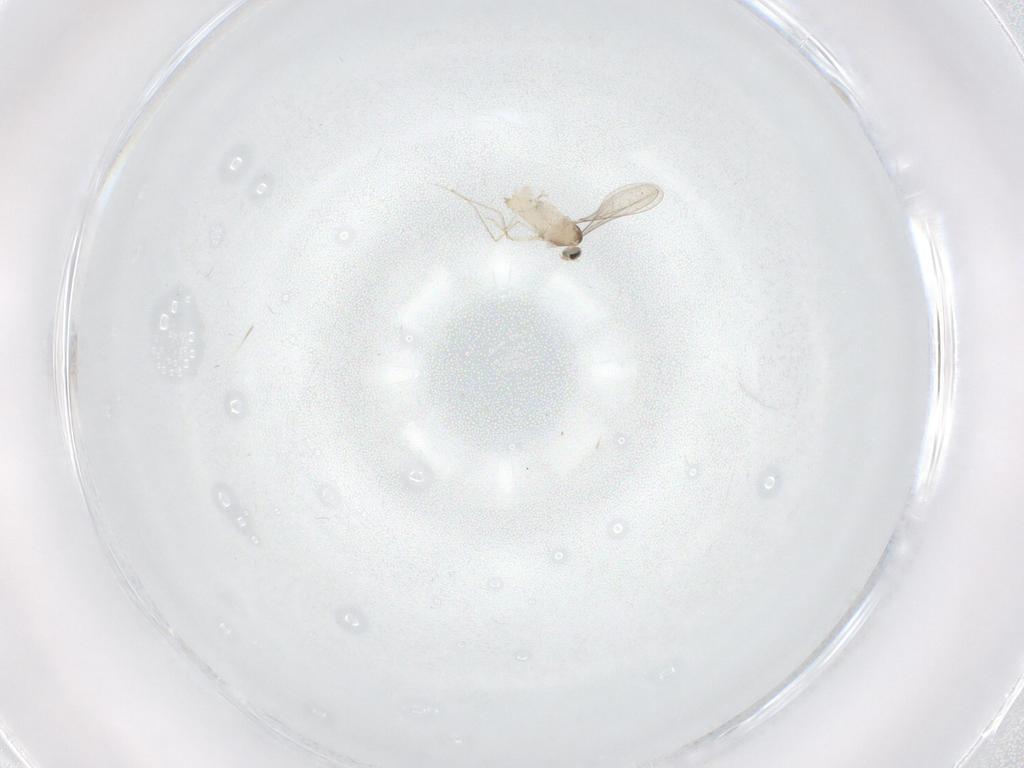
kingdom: Animalia
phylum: Arthropoda
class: Insecta
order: Diptera
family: Cecidomyiidae
